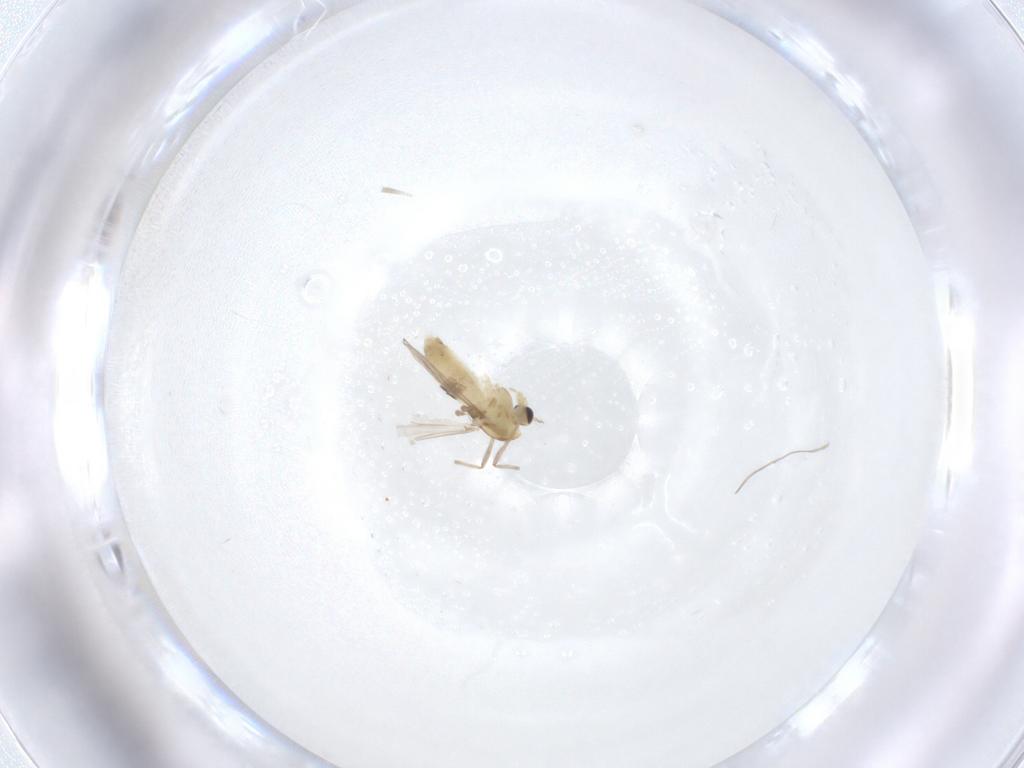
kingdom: Animalia
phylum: Arthropoda
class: Insecta
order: Diptera
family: Chironomidae
